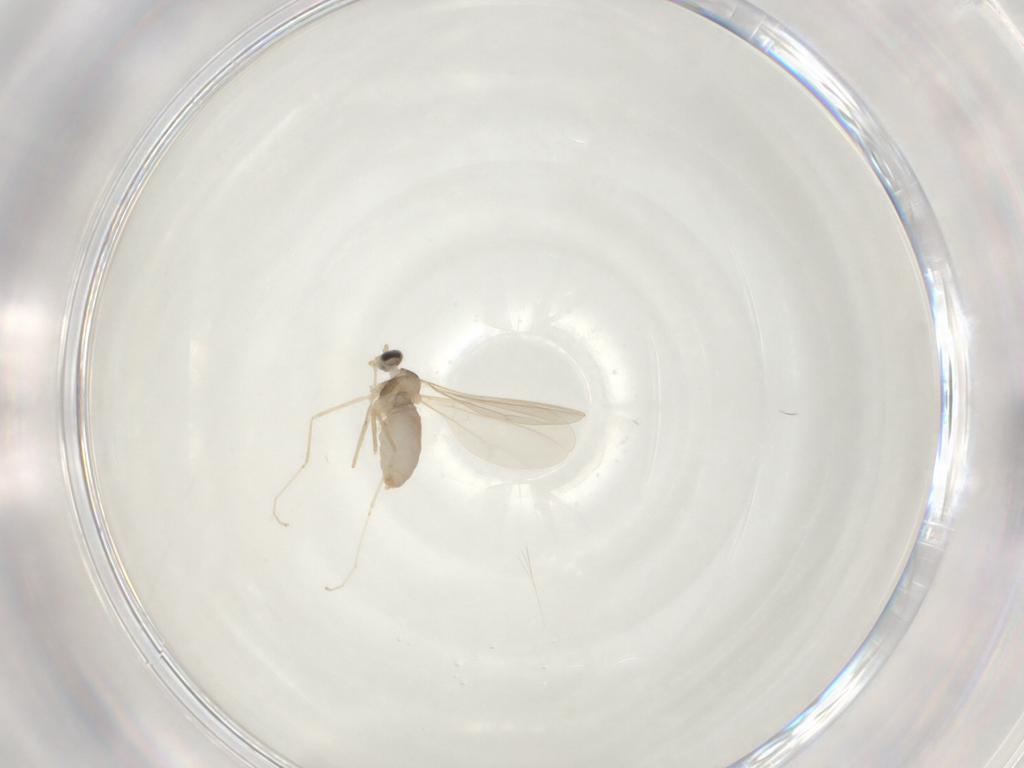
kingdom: Animalia
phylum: Arthropoda
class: Insecta
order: Diptera
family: Cecidomyiidae
